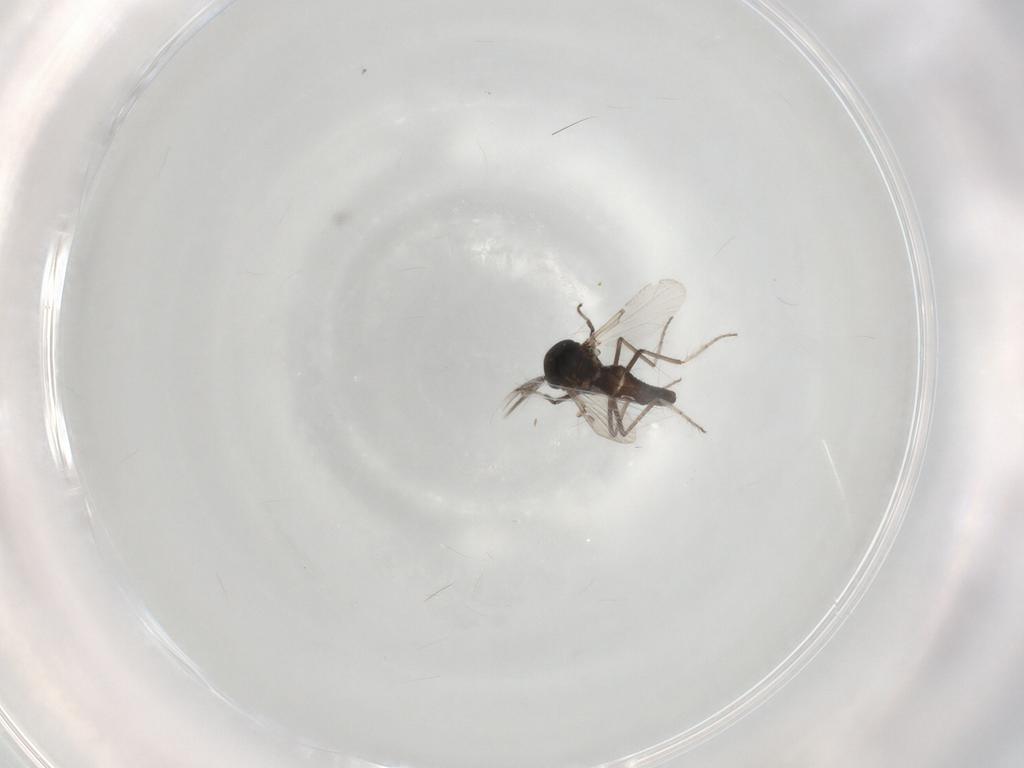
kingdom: Animalia
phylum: Arthropoda
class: Insecta
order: Diptera
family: Ceratopogonidae
